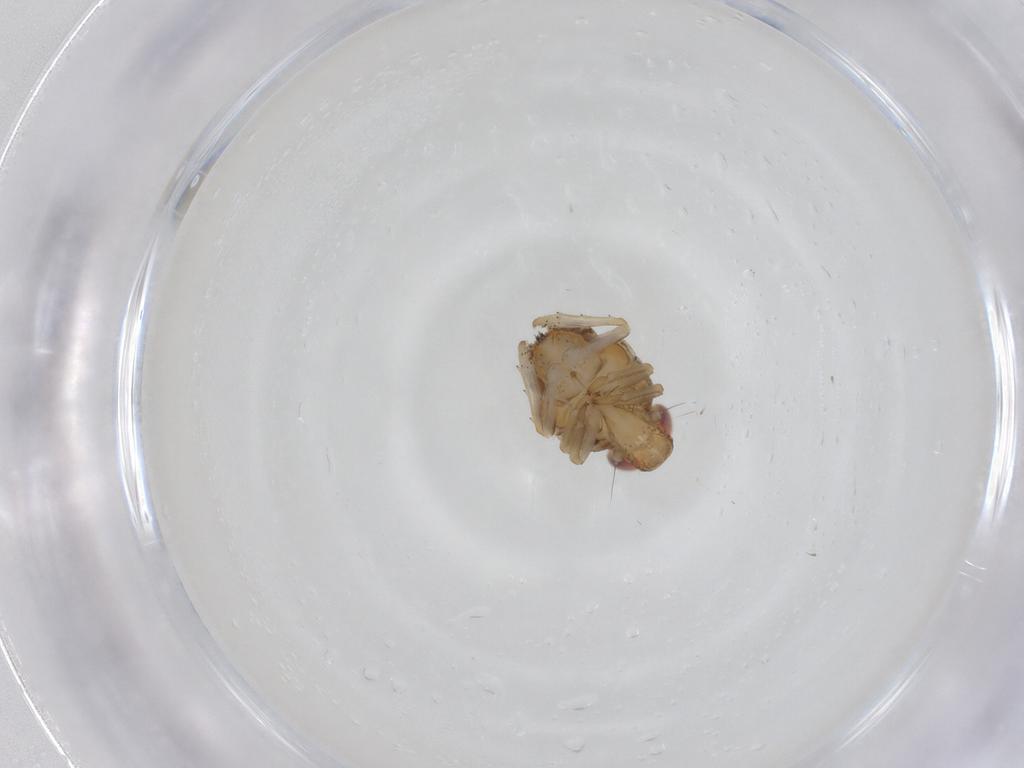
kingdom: Animalia
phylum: Arthropoda
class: Insecta
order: Hemiptera
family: Issidae
